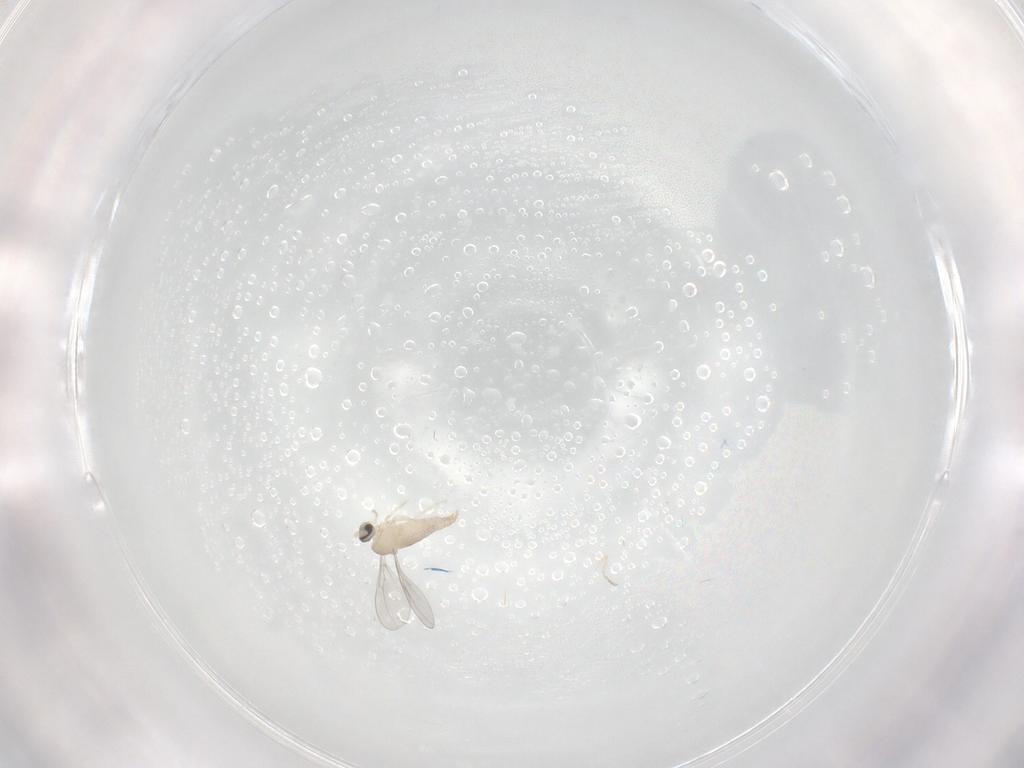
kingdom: Animalia
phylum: Arthropoda
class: Insecta
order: Diptera
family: Cecidomyiidae
